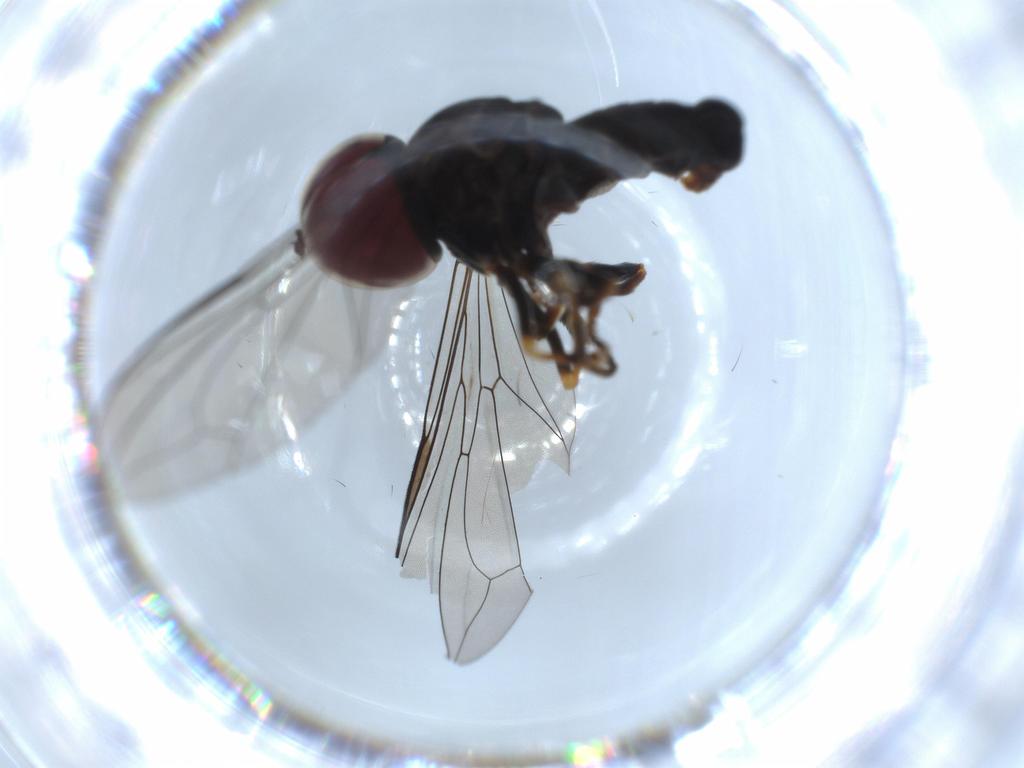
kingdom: Animalia
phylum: Arthropoda
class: Insecta
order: Diptera
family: Pipunculidae
